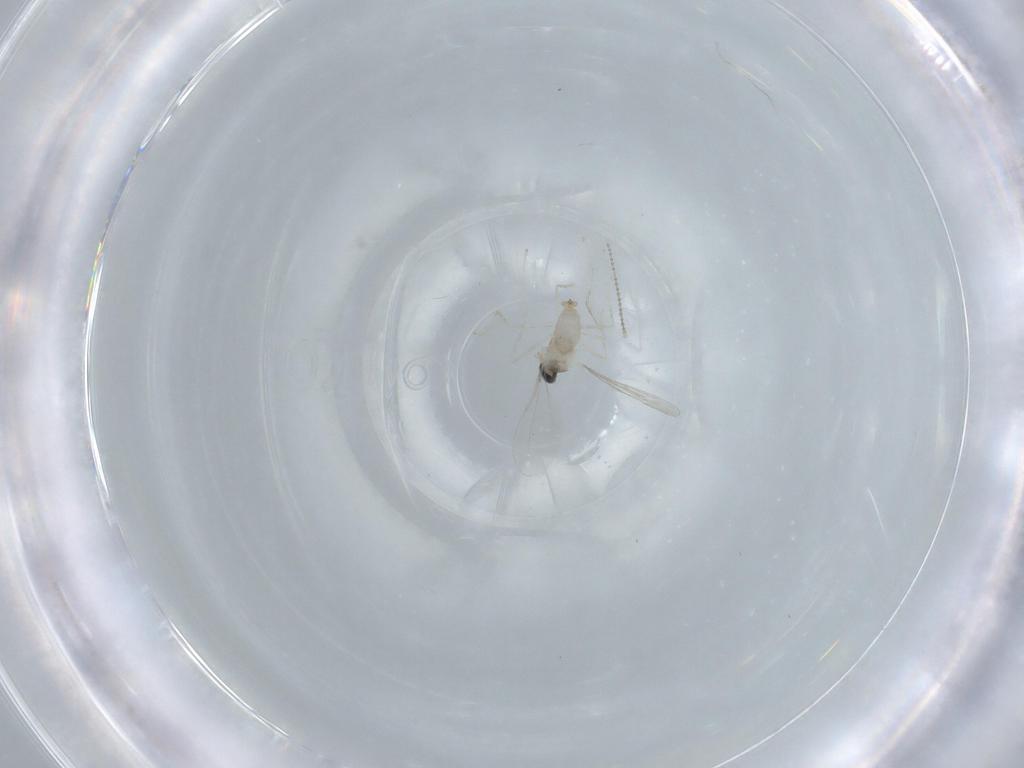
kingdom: Animalia
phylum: Arthropoda
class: Insecta
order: Diptera
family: Cecidomyiidae
